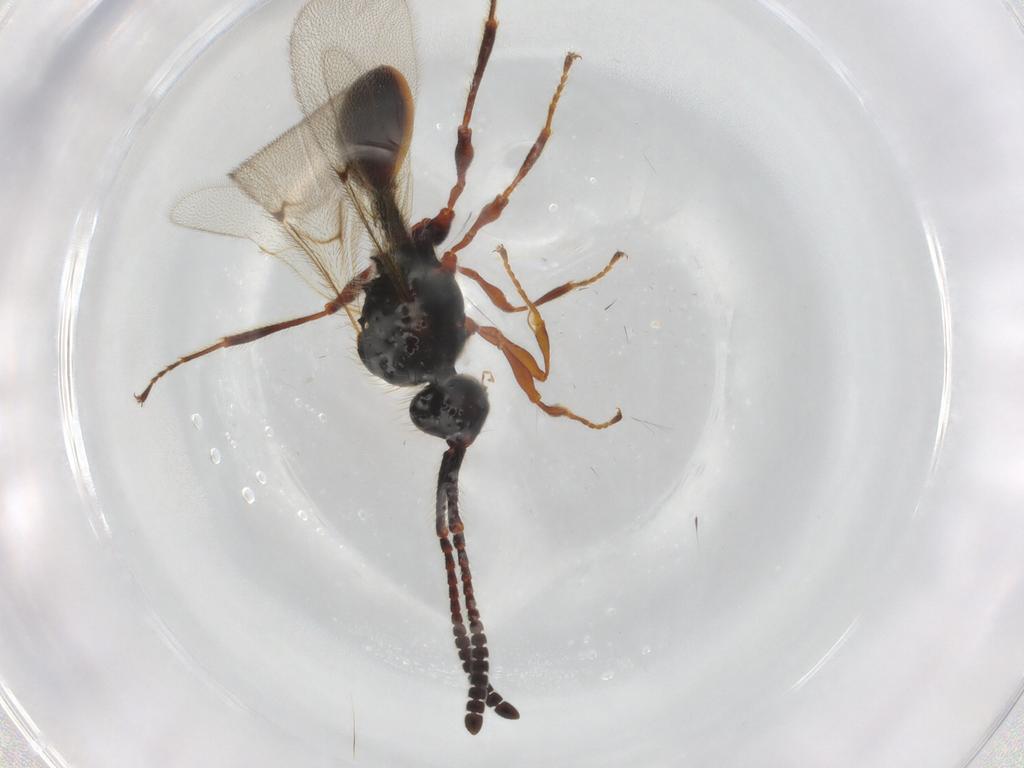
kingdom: Animalia
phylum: Arthropoda
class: Insecta
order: Hymenoptera
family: Diapriidae
